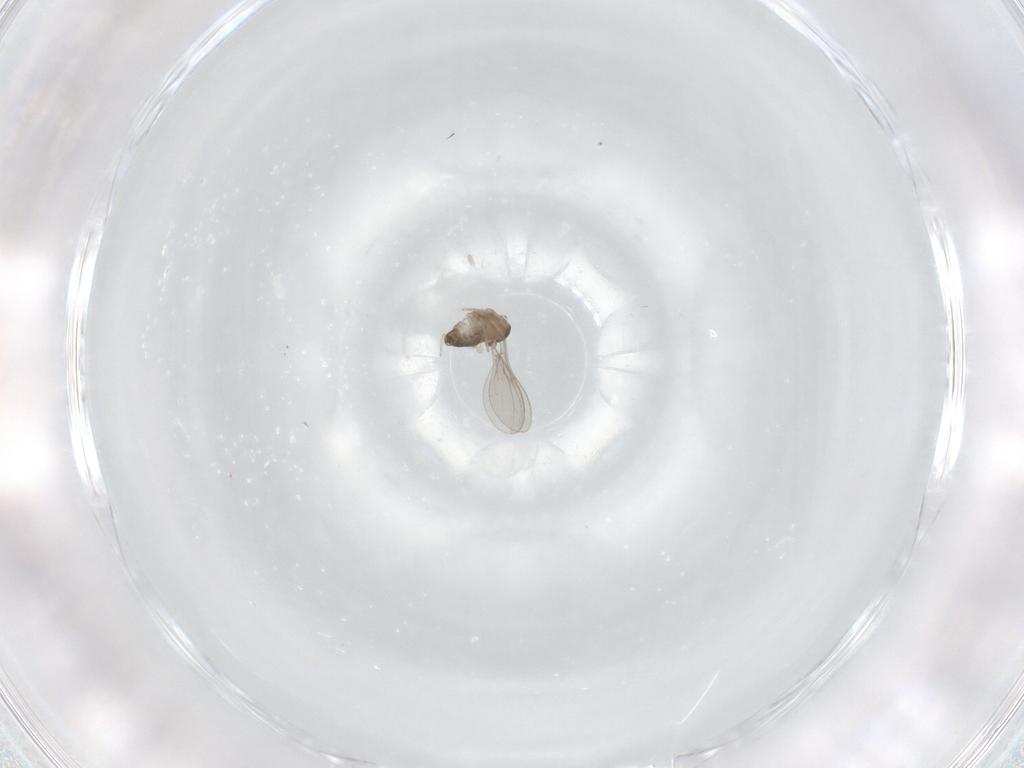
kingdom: Animalia
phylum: Arthropoda
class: Insecta
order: Diptera
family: Cecidomyiidae
